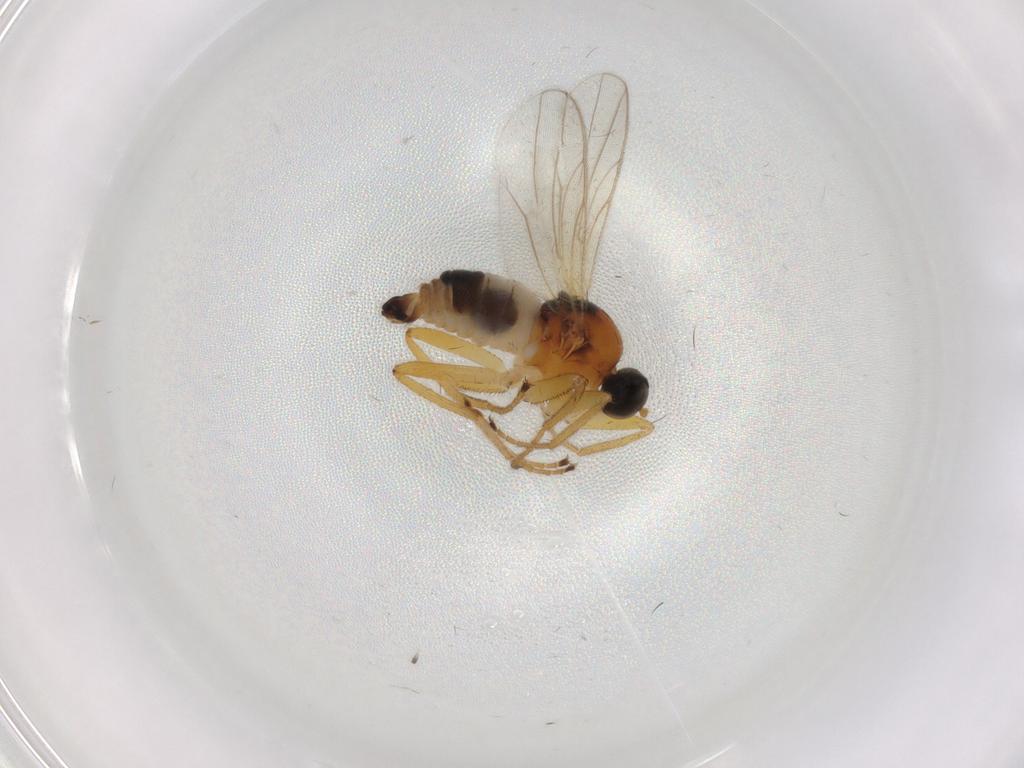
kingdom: Animalia
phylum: Arthropoda
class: Insecta
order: Diptera
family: Hybotidae
